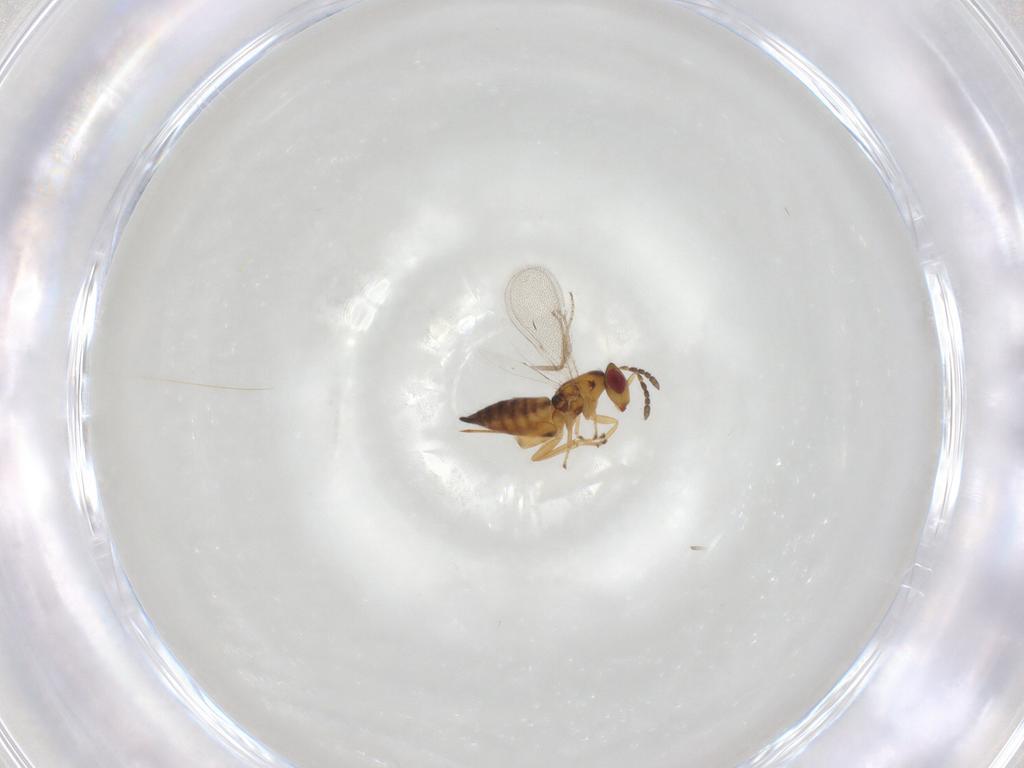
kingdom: Animalia
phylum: Arthropoda
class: Insecta
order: Hymenoptera
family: Eulophidae
